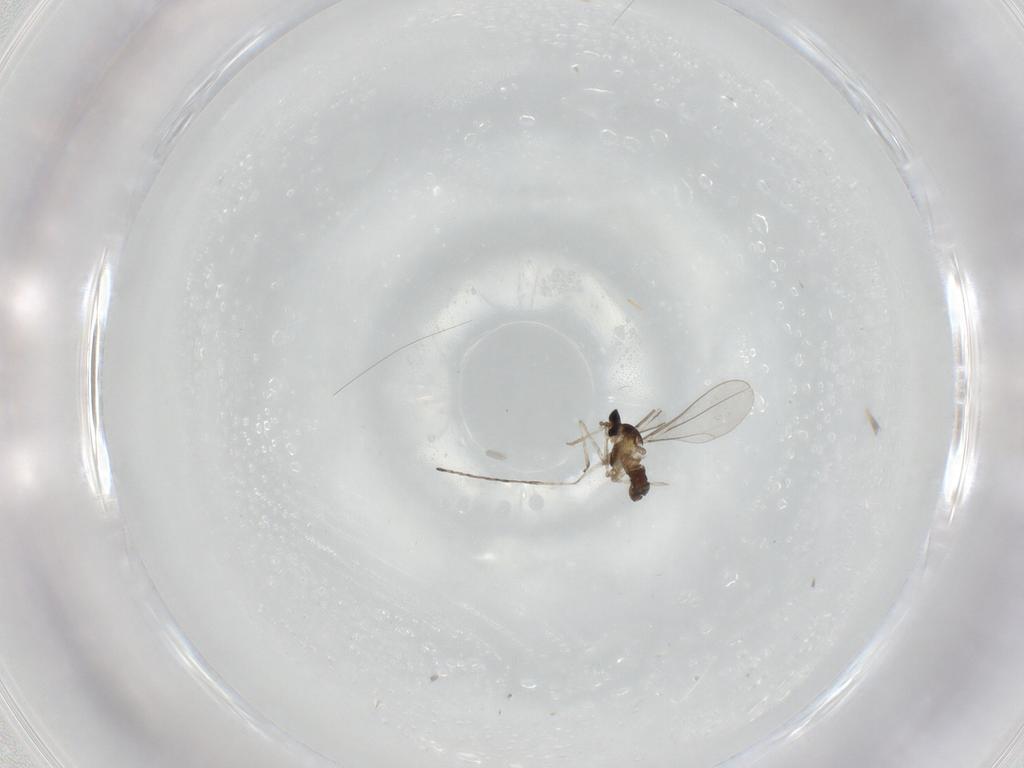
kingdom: Animalia
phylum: Arthropoda
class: Insecta
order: Diptera
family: Cecidomyiidae
